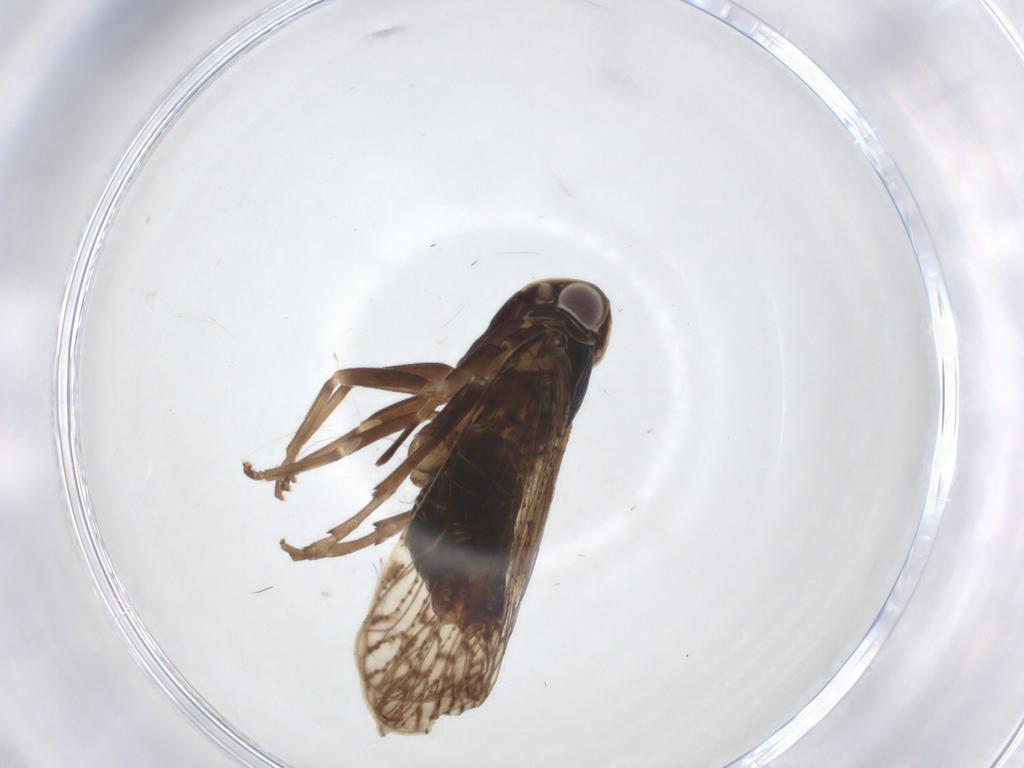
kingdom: Animalia
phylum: Arthropoda
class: Insecta
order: Hemiptera
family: Cixiidae
